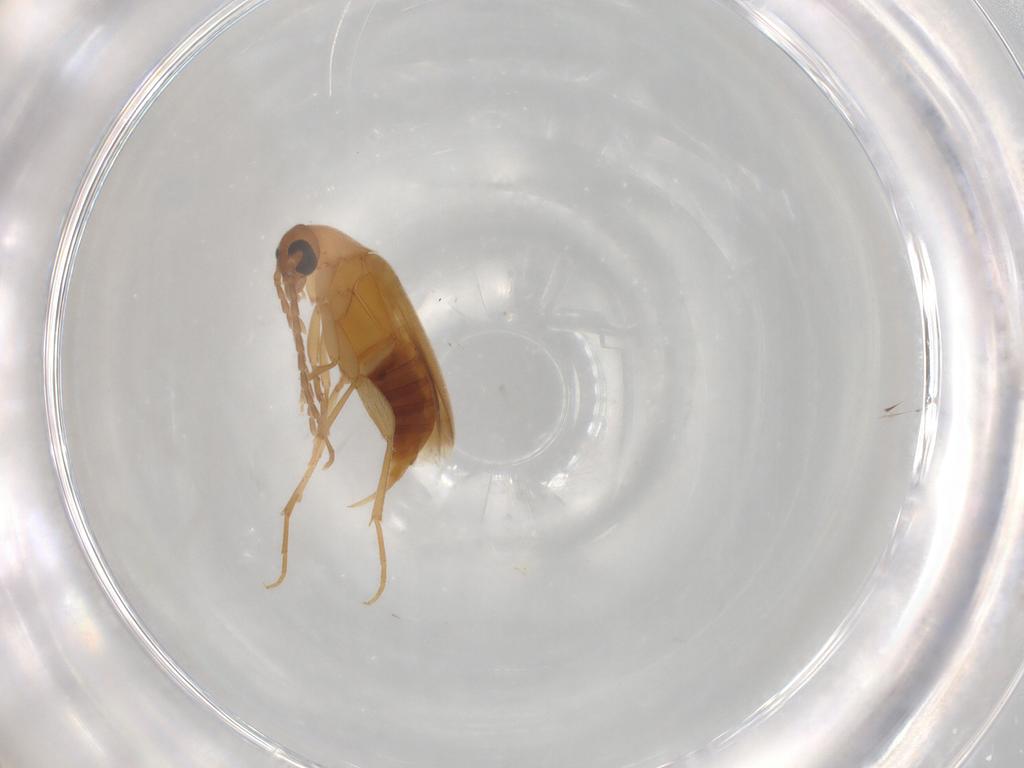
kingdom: Animalia
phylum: Arthropoda
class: Insecta
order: Coleoptera
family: Scraptiidae
